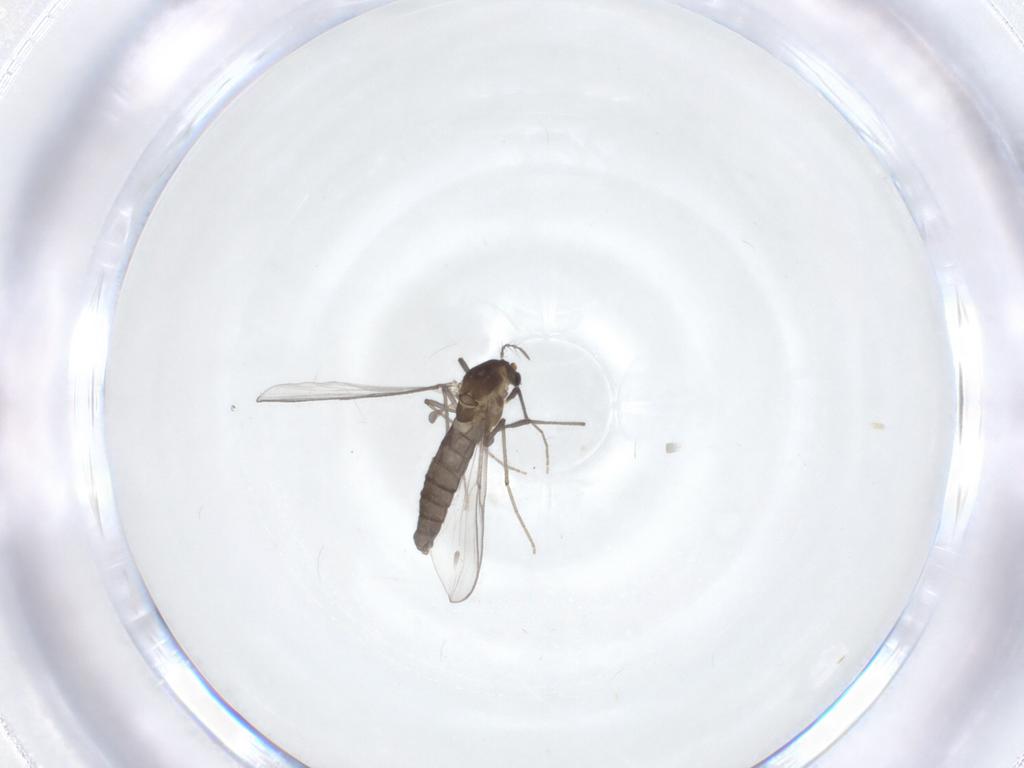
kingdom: Animalia
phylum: Arthropoda
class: Insecta
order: Diptera
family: Chironomidae
